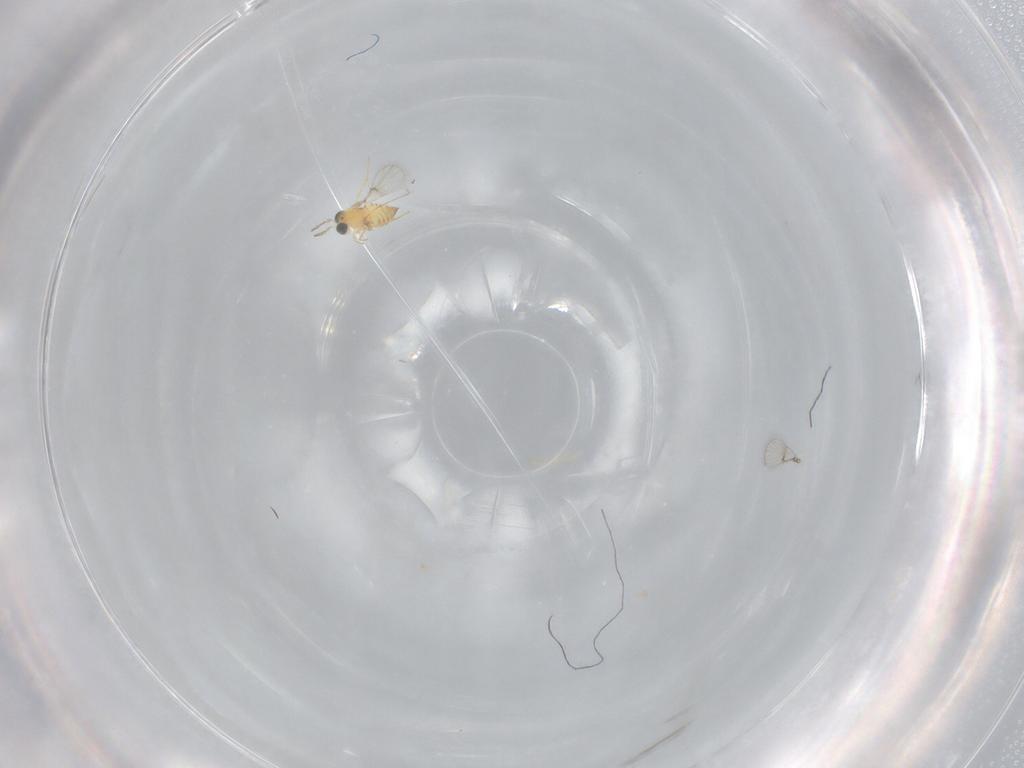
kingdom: Animalia
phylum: Arthropoda
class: Insecta
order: Hymenoptera
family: Trichogrammatidae
